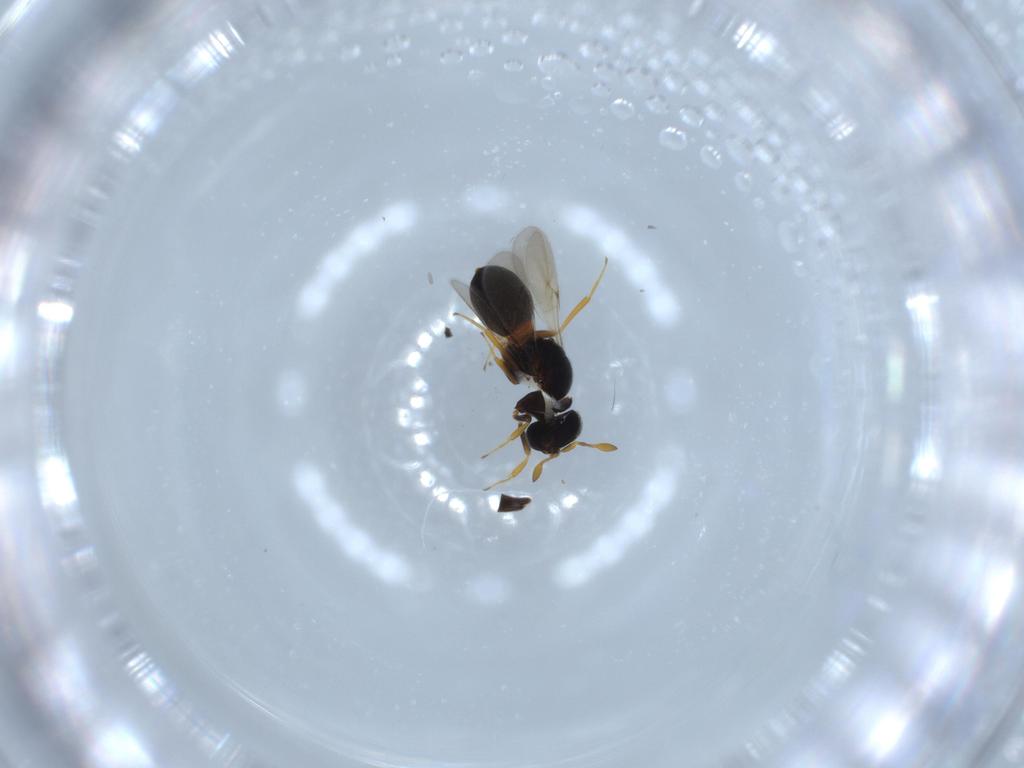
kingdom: Animalia
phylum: Arthropoda
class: Insecta
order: Hymenoptera
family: Scelionidae
